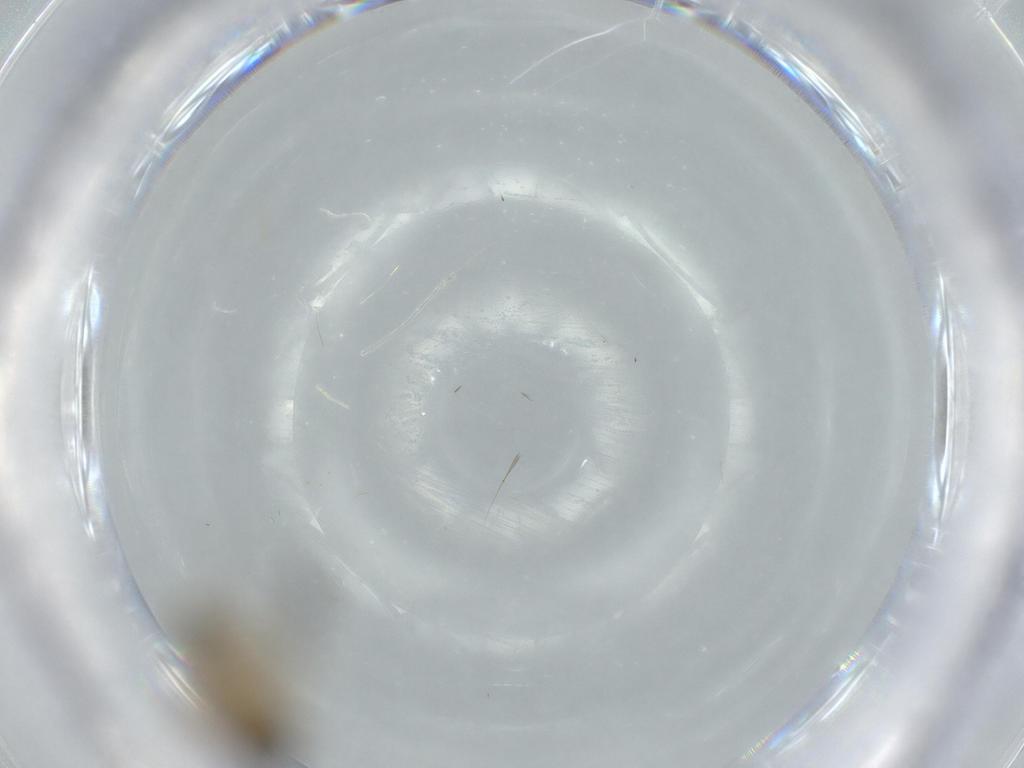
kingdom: Animalia
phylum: Arthropoda
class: Insecta
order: Diptera
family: Ceratopogonidae
